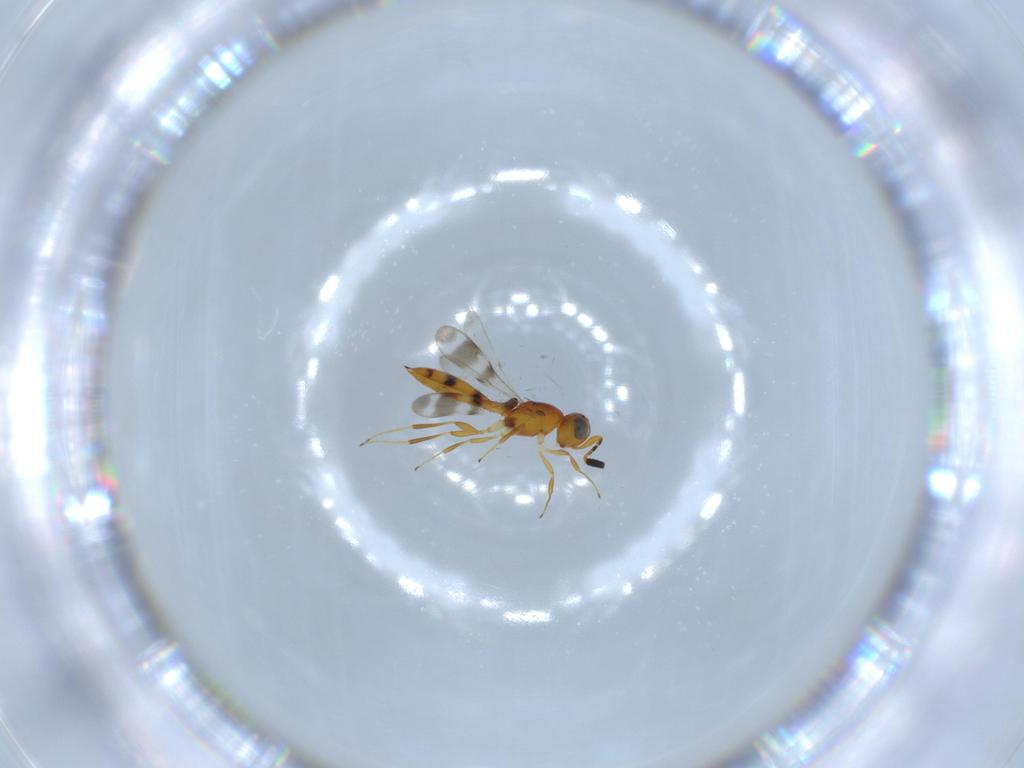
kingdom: Animalia
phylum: Arthropoda
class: Insecta
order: Hymenoptera
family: Scelionidae
